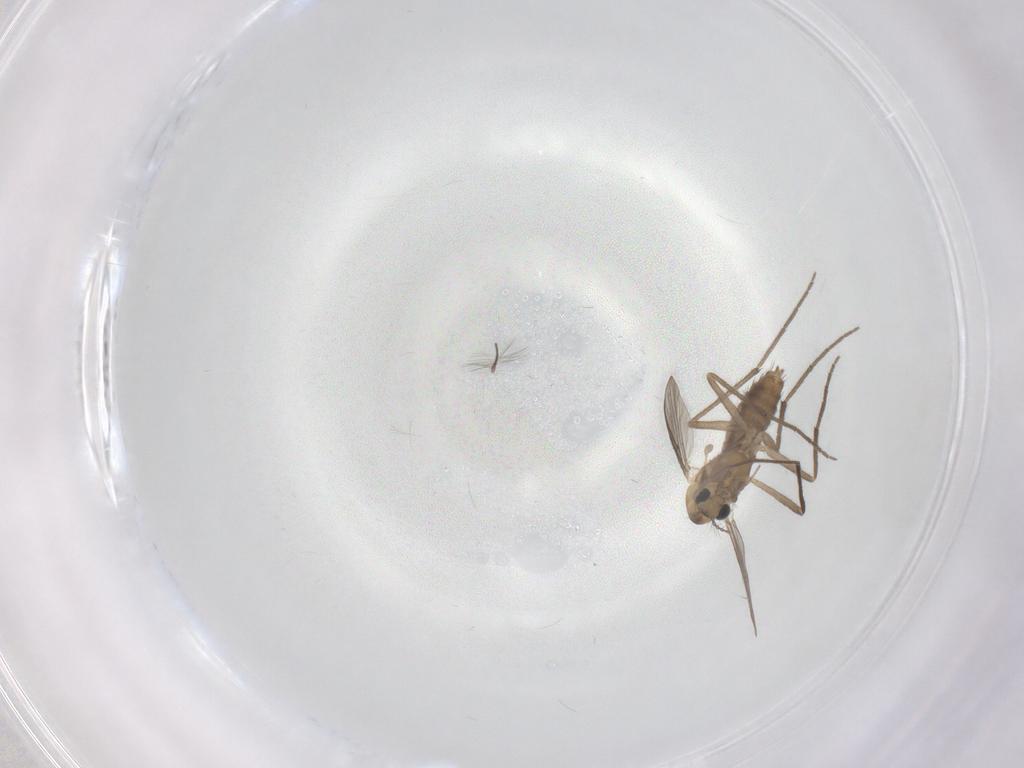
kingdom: Animalia
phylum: Arthropoda
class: Insecta
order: Diptera
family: Chironomidae
